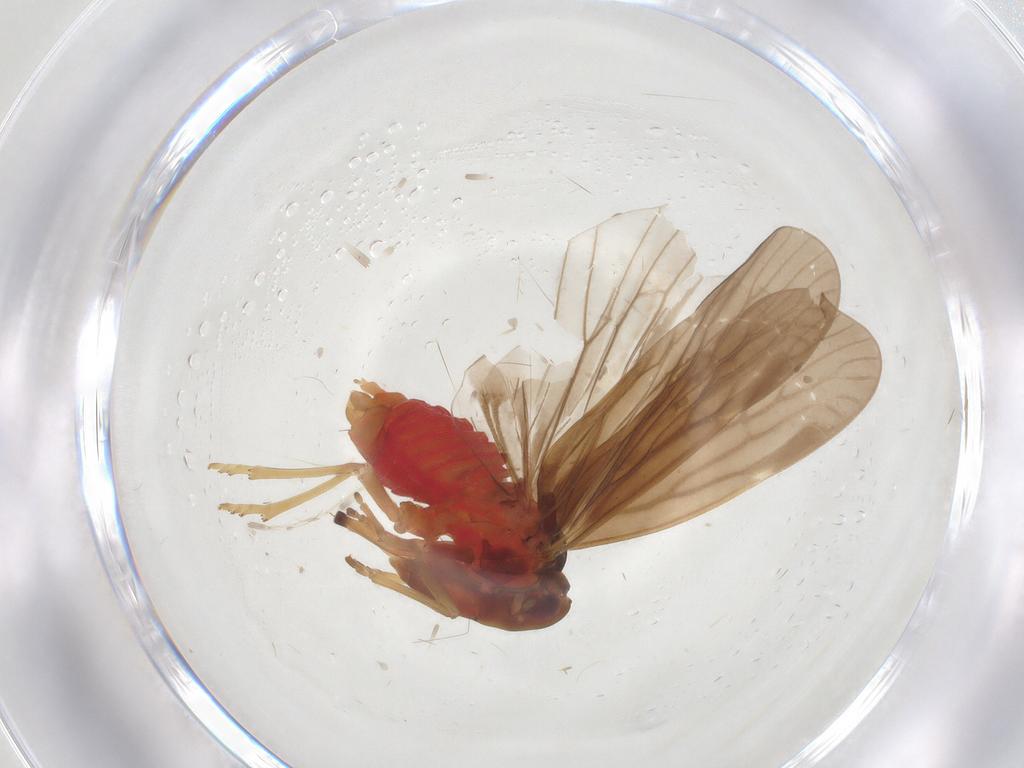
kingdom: Animalia
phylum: Arthropoda
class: Insecta
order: Hemiptera
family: Derbidae
